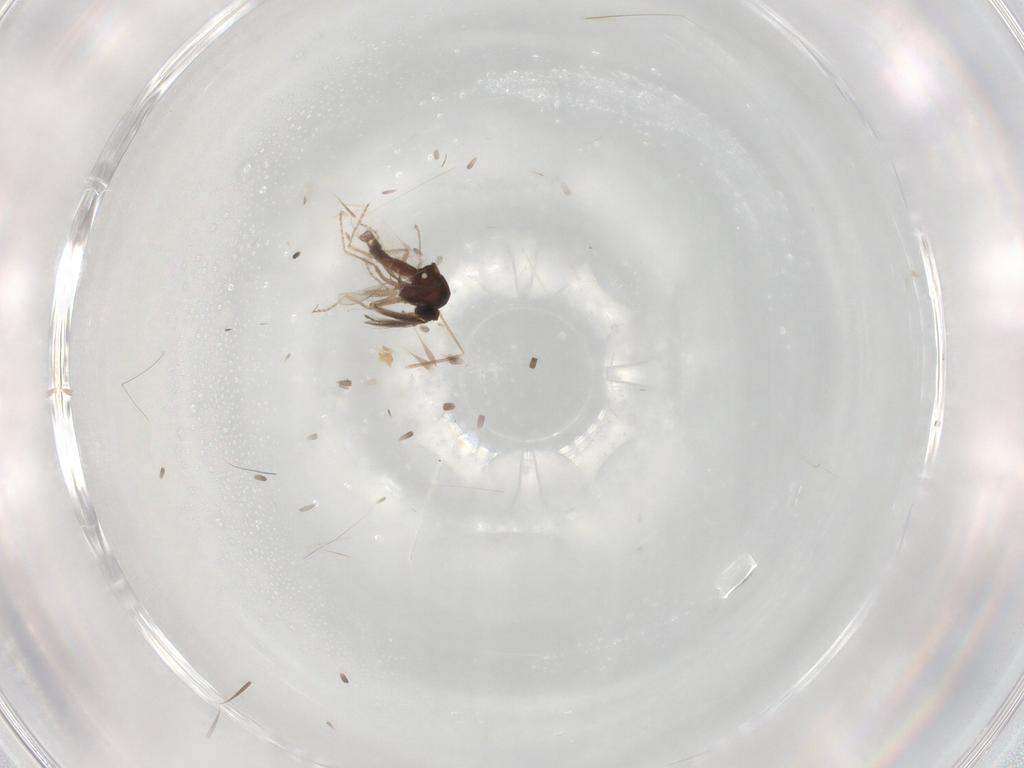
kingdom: Animalia
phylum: Arthropoda
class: Insecta
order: Diptera
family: Ceratopogonidae
